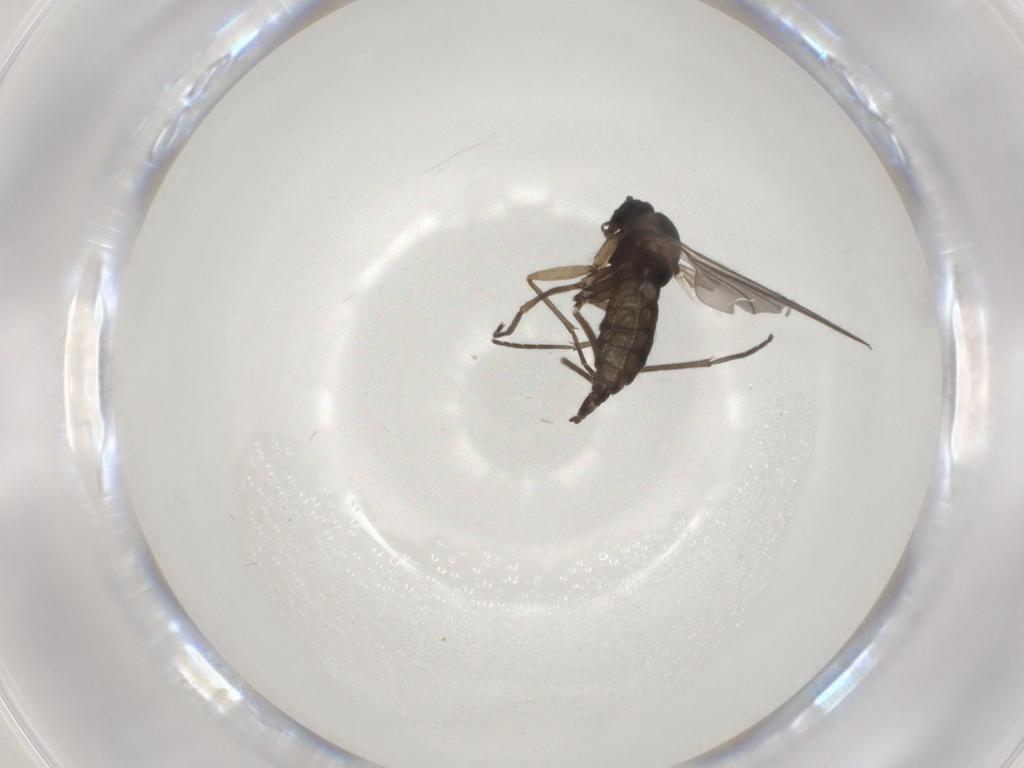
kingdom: Animalia
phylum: Arthropoda
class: Insecta
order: Diptera
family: Sciaridae
